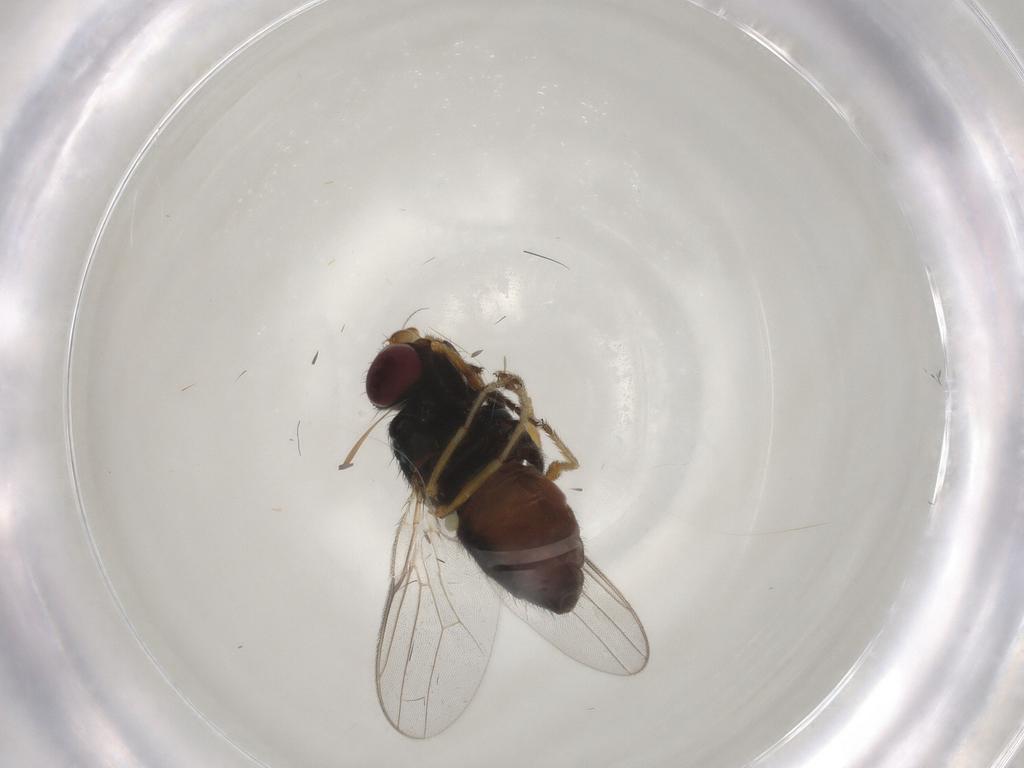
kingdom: Animalia
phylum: Arthropoda
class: Insecta
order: Diptera
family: Chloropidae
